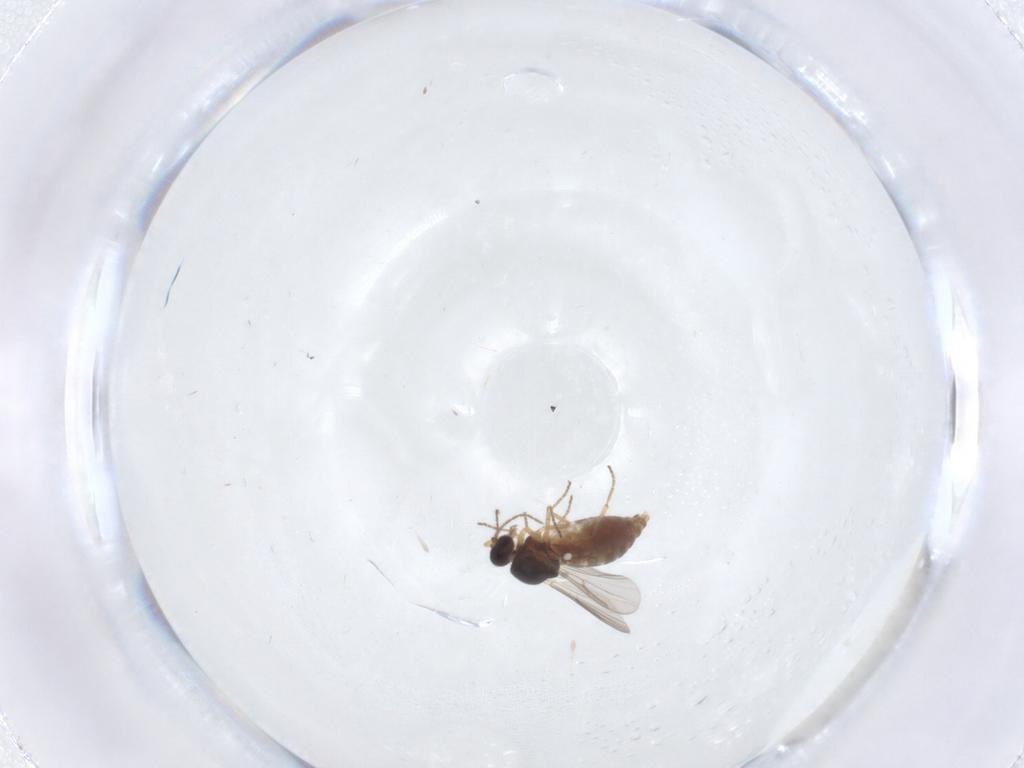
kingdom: Animalia
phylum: Arthropoda
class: Insecta
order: Diptera
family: Ceratopogonidae
